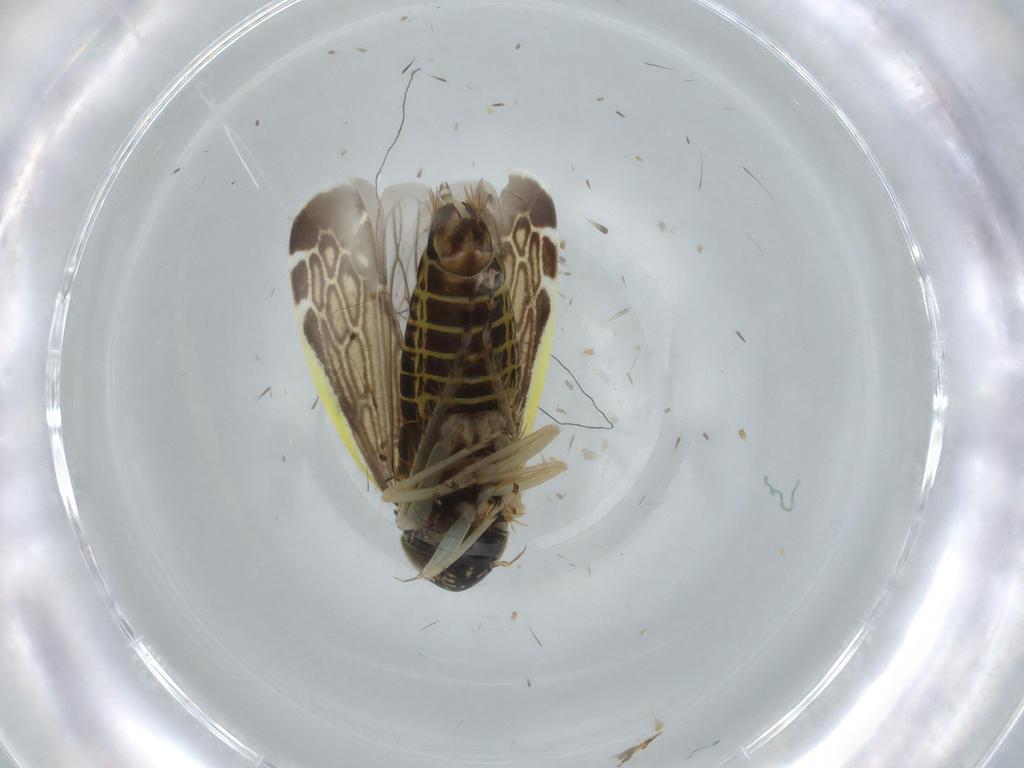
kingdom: Animalia
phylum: Arthropoda
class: Insecta
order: Hemiptera
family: Cicadellidae
